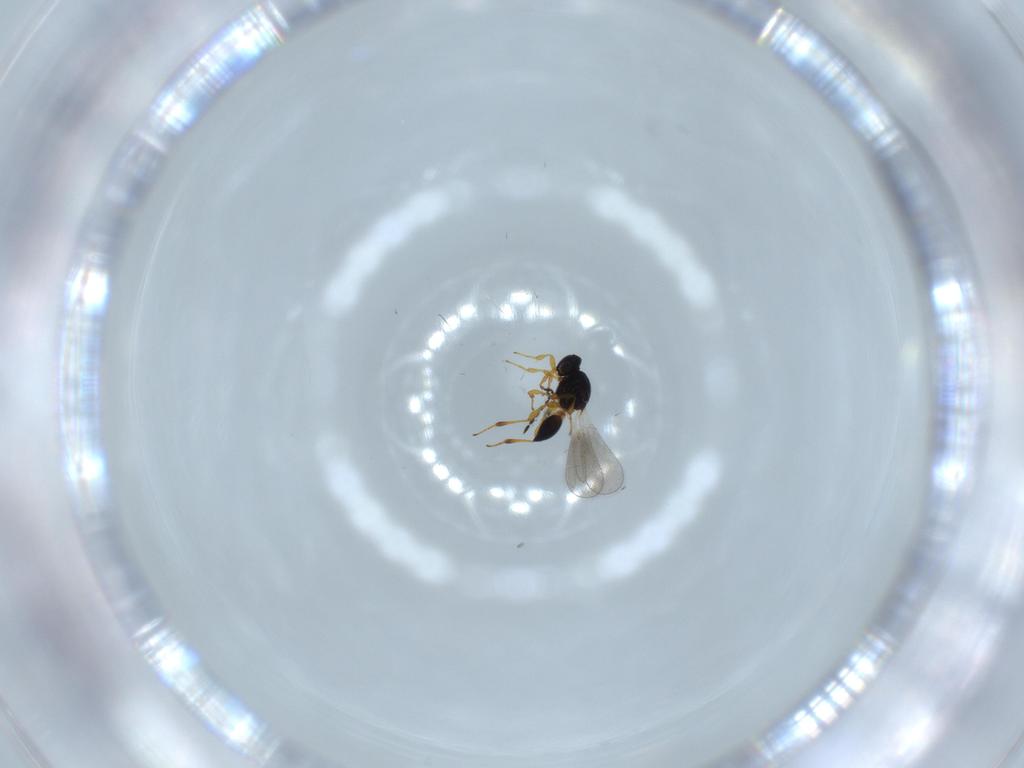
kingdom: Animalia
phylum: Arthropoda
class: Insecta
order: Hymenoptera
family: Platygastridae
